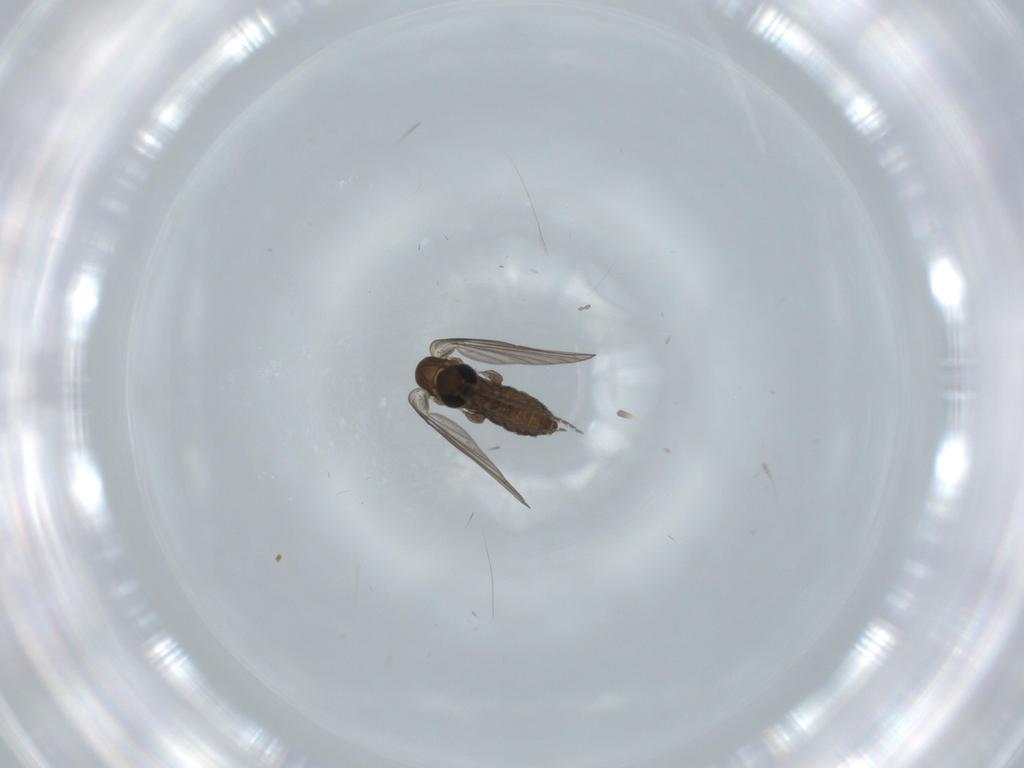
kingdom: Animalia
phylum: Arthropoda
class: Insecta
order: Diptera
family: Psychodidae
